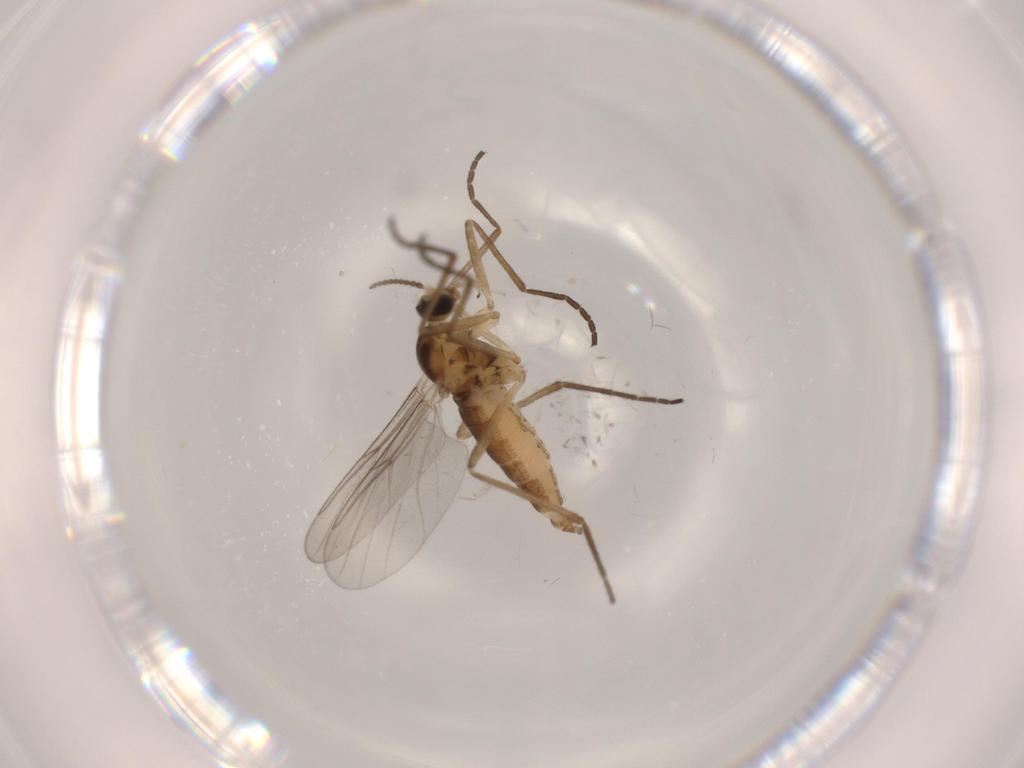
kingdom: Animalia
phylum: Arthropoda
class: Insecta
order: Diptera
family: Cecidomyiidae
